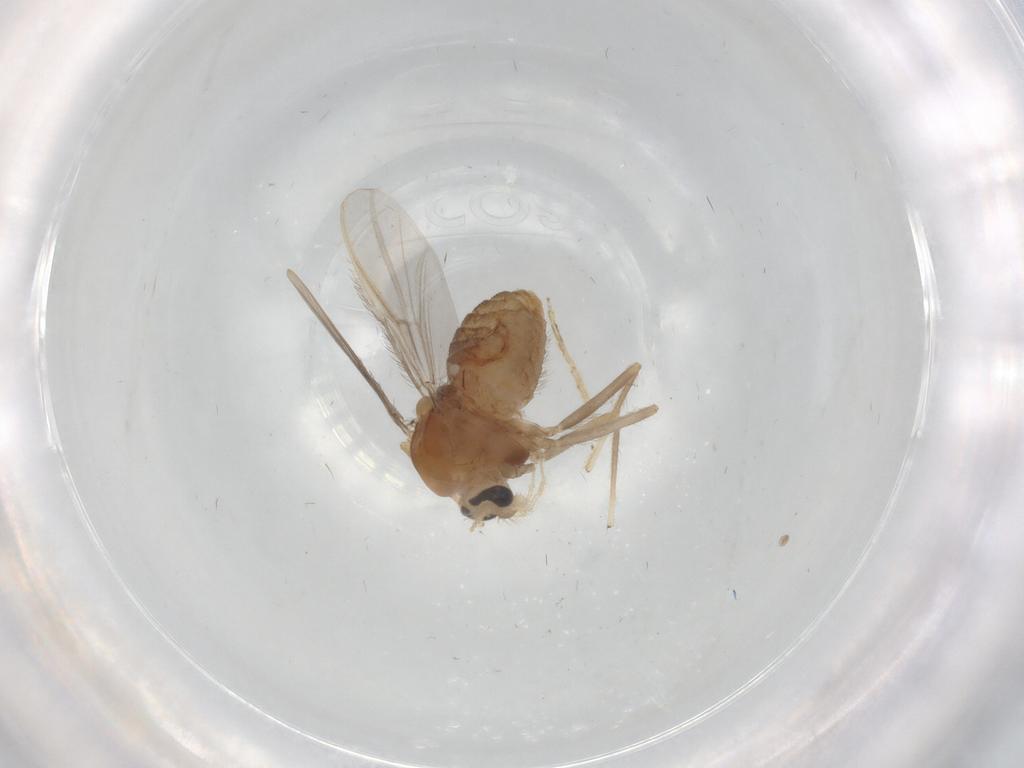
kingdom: Animalia
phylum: Arthropoda
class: Insecta
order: Diptera
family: Chironomidae
